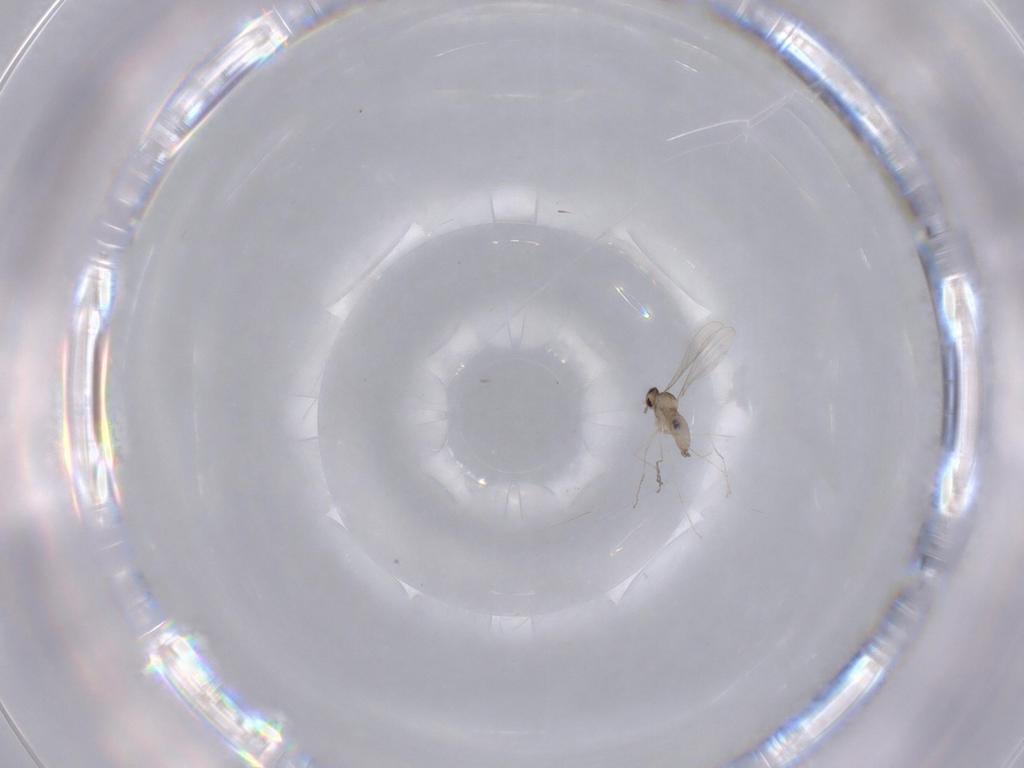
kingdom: Animalia
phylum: Arthropoda
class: Insecta
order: Diptera
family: Cecidomyiidae
